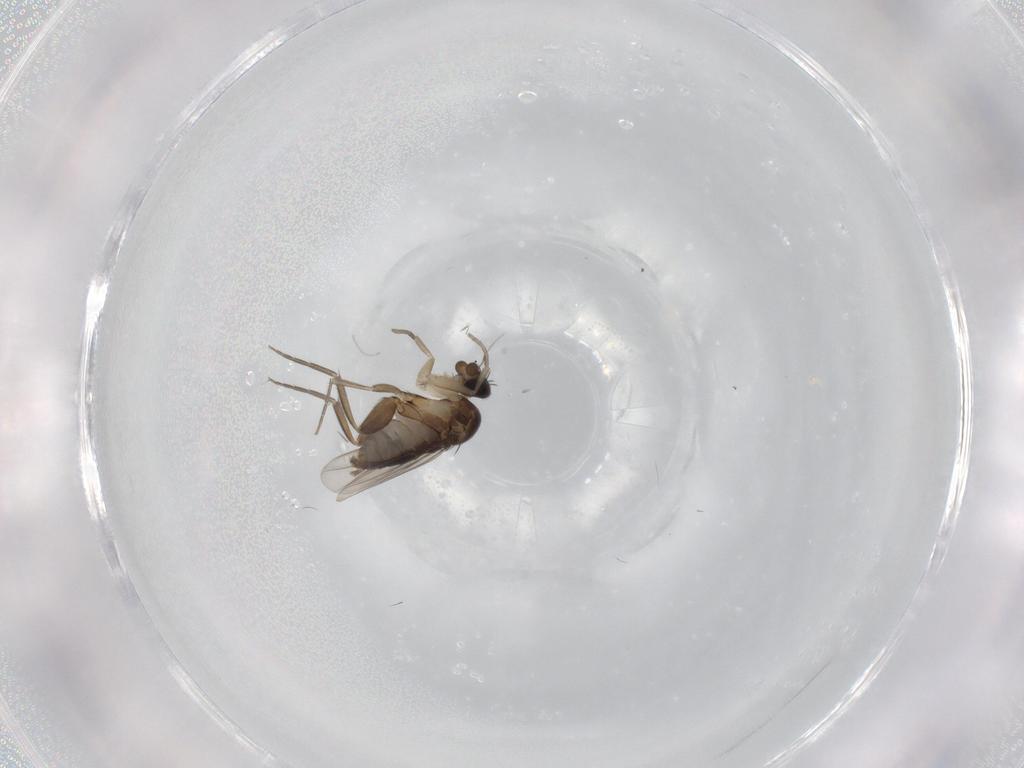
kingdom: Animalia
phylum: Arthropoda
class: Insecta
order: Diptera
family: Phoridae
